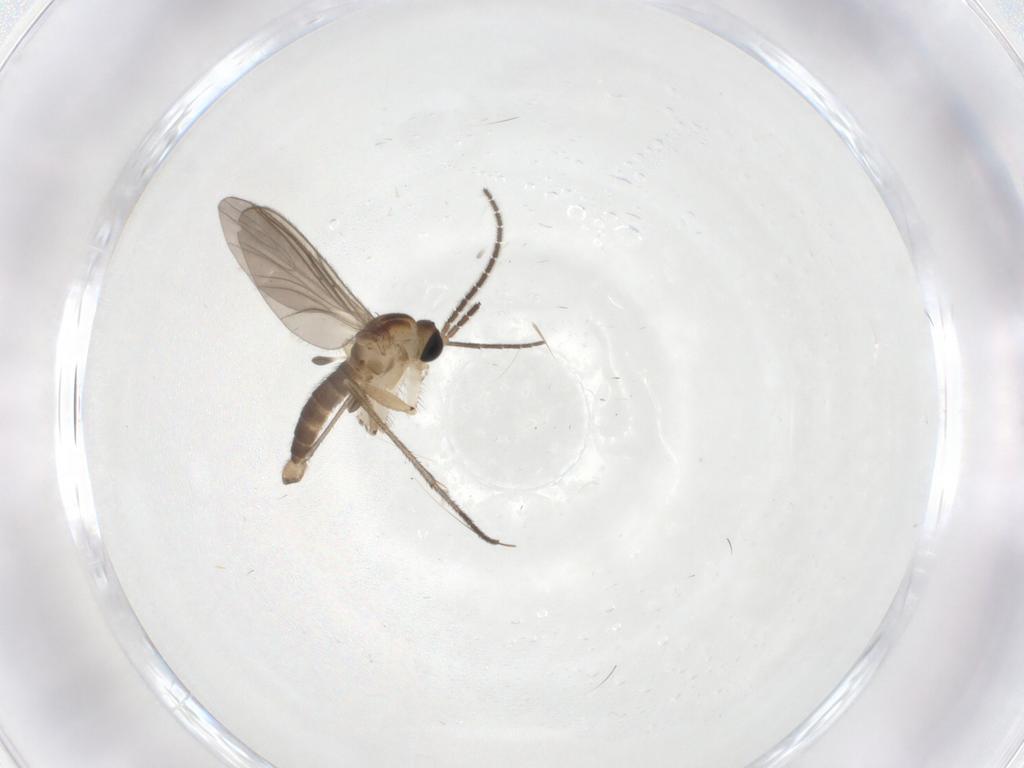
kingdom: Animalia
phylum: Arthropoda
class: Insecta
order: Diptera
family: Sciaridae
